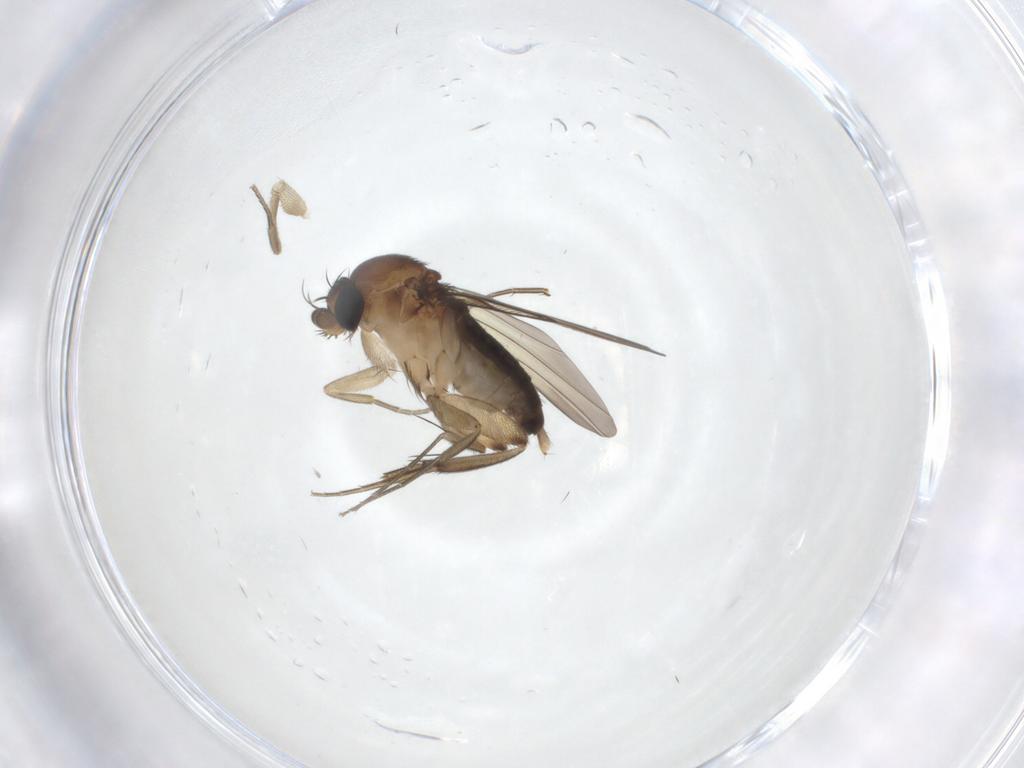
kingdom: Animalia
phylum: Arthropoda
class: Insecta
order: Diptera
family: Phoridae
